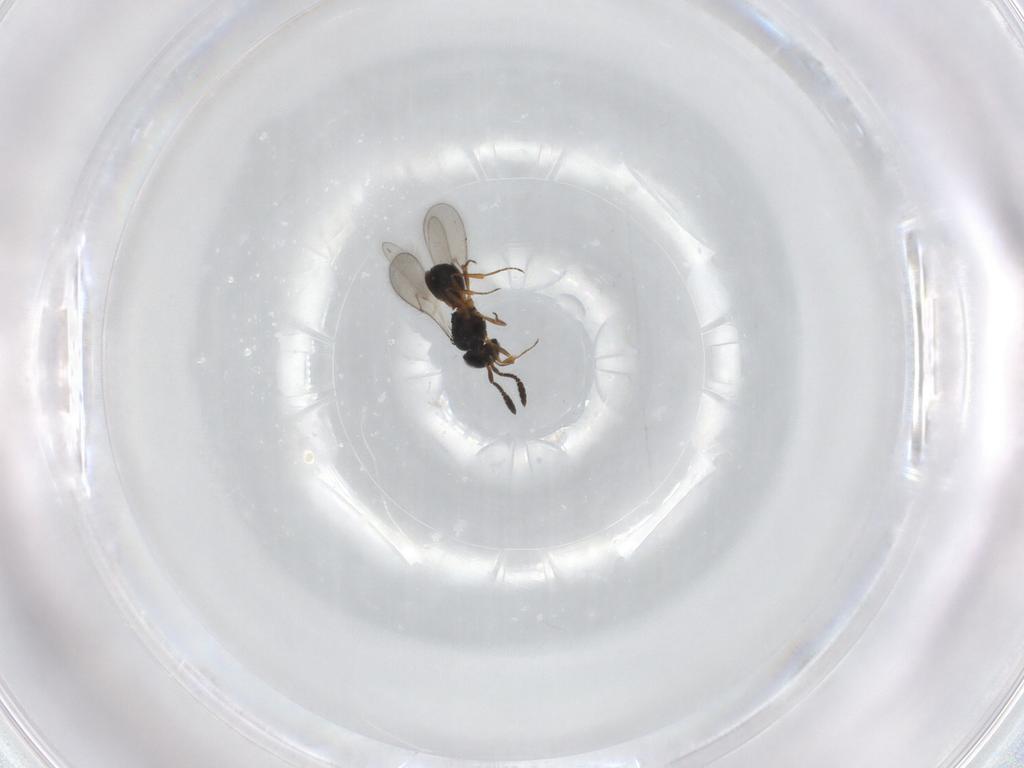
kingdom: Animalia
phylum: Arthropoda
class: Insecta
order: Hymenoptera
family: Scelionidae
